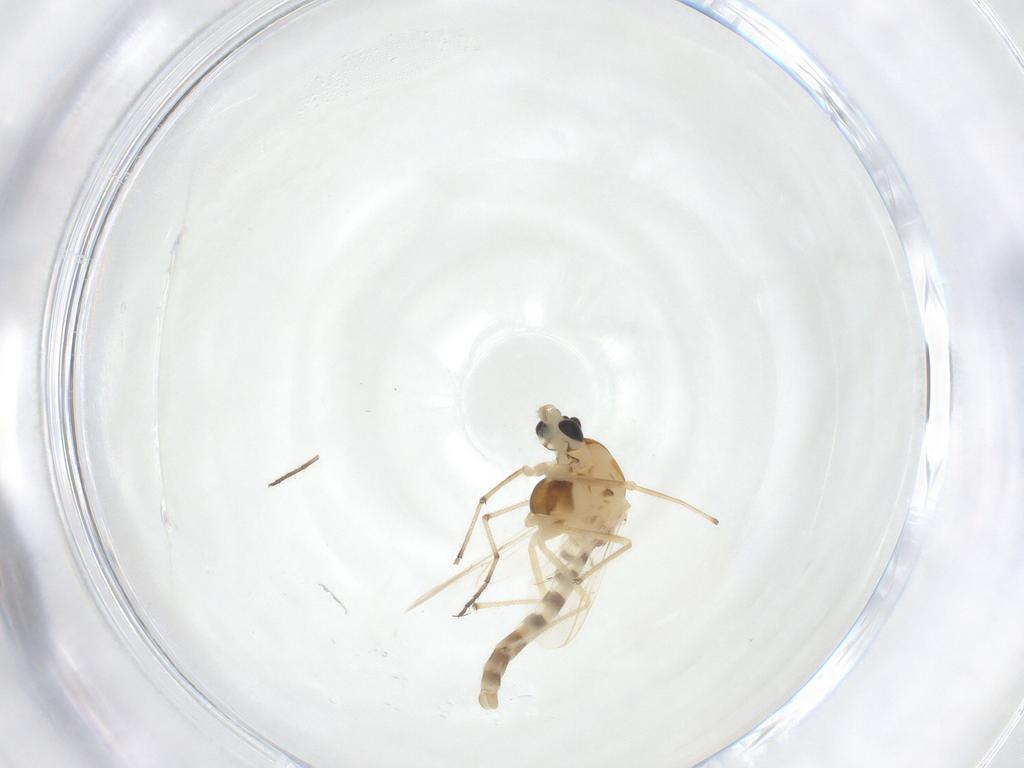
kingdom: Animalia
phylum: Arthropoda
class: Insecta
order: Diptera
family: Chironomidae
